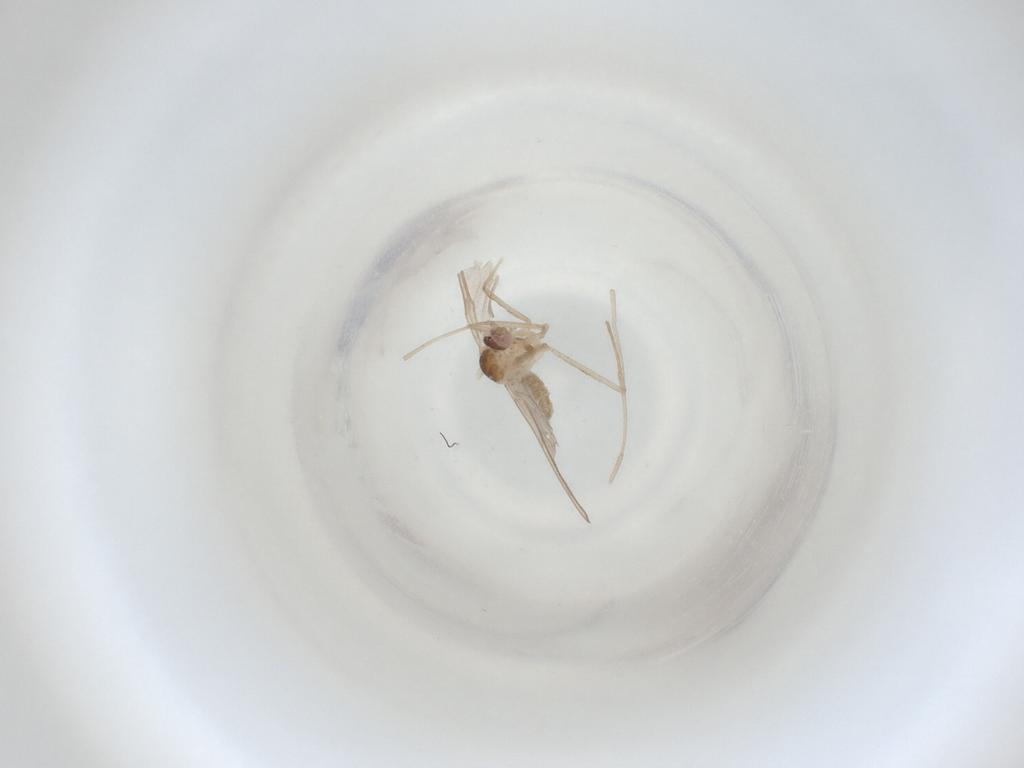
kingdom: Animalia
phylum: Arthropoda
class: Insecta
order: Diptera
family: Cecidomyiidae
